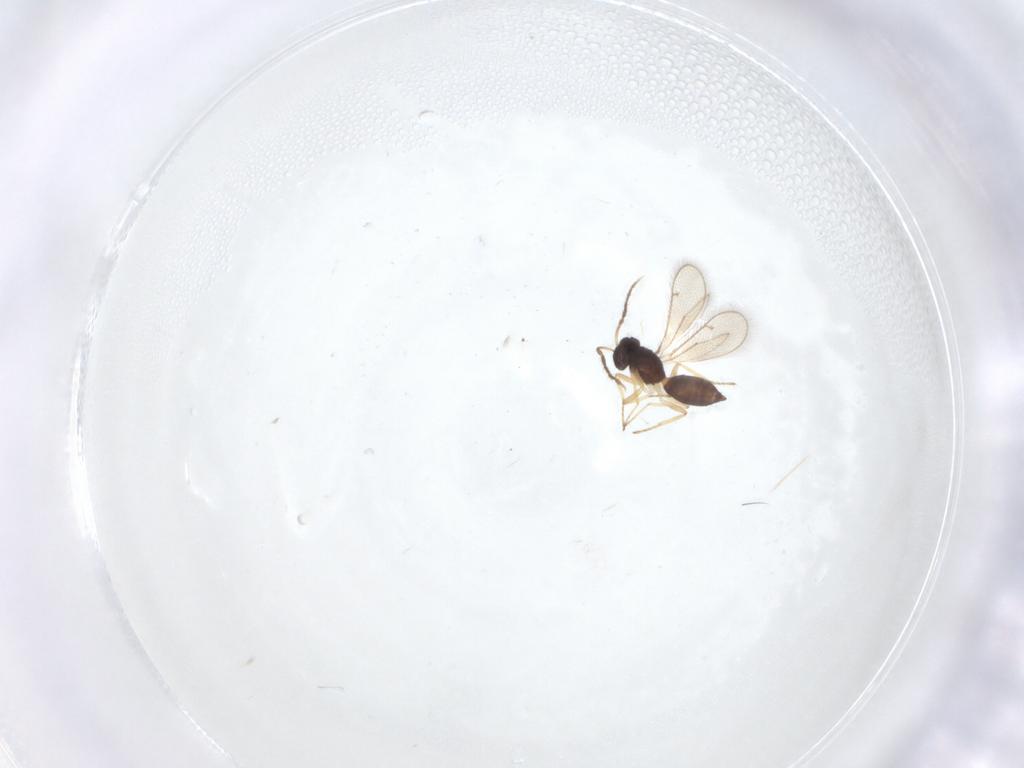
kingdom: Animalia
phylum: Arthropoda
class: Insecta
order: Hymenoptera
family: Eulophidae
